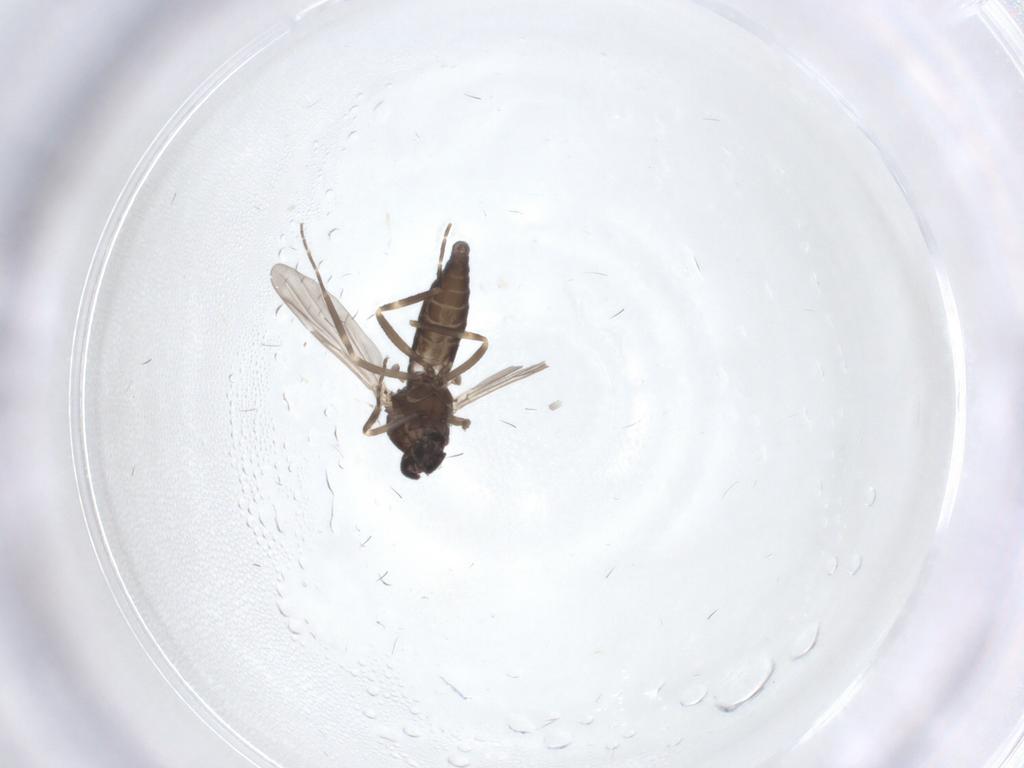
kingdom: Animalia
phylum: Arthropoda
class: Insecta
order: Diptera
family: Ceratopogonidae
